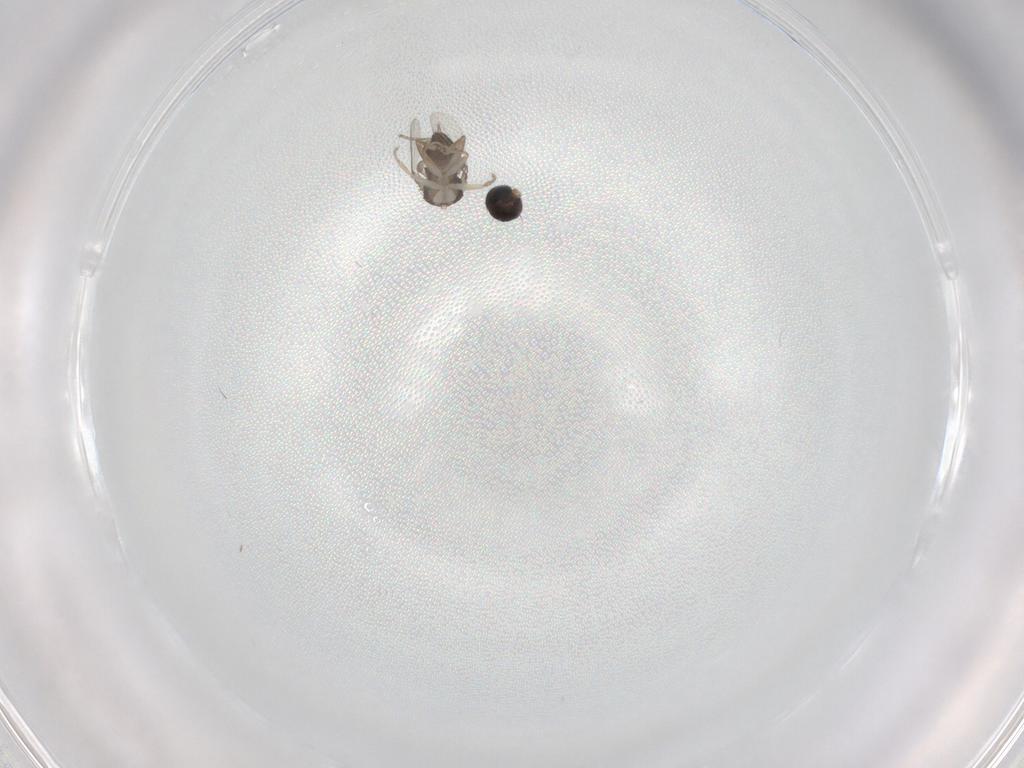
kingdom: Animalia
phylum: Arthropoda
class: Insecta
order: Diptera
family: Phoridae
